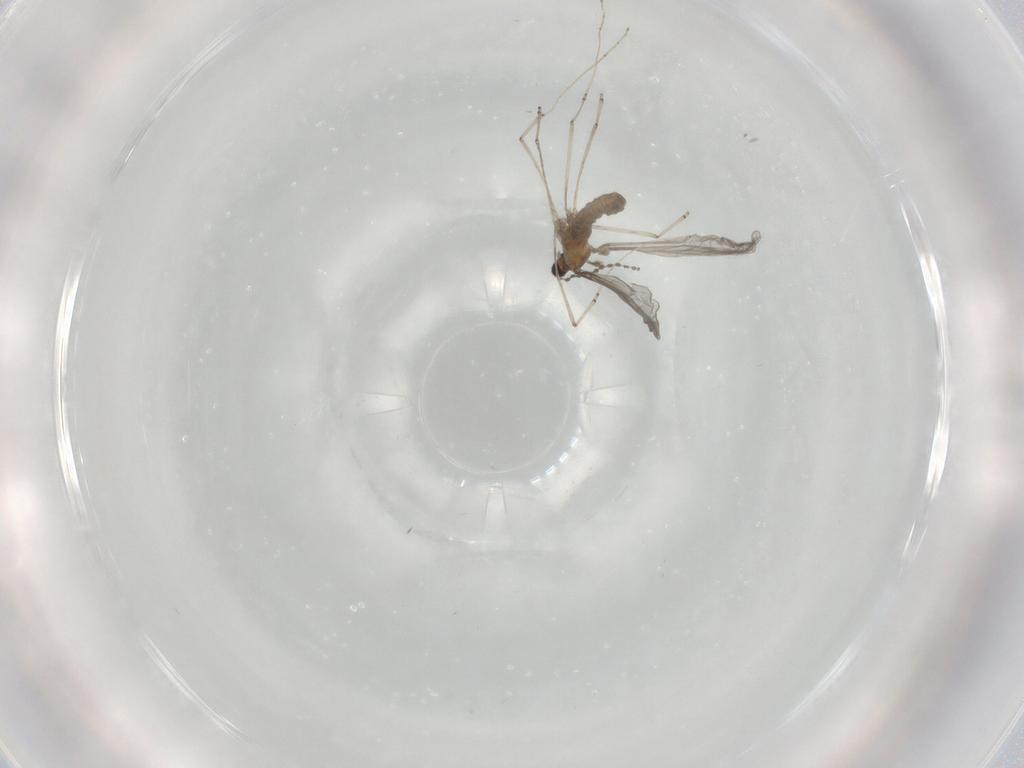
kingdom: Animalia
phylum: Arthropoda
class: Insecta
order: Diptera
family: Cecidomyiidae
